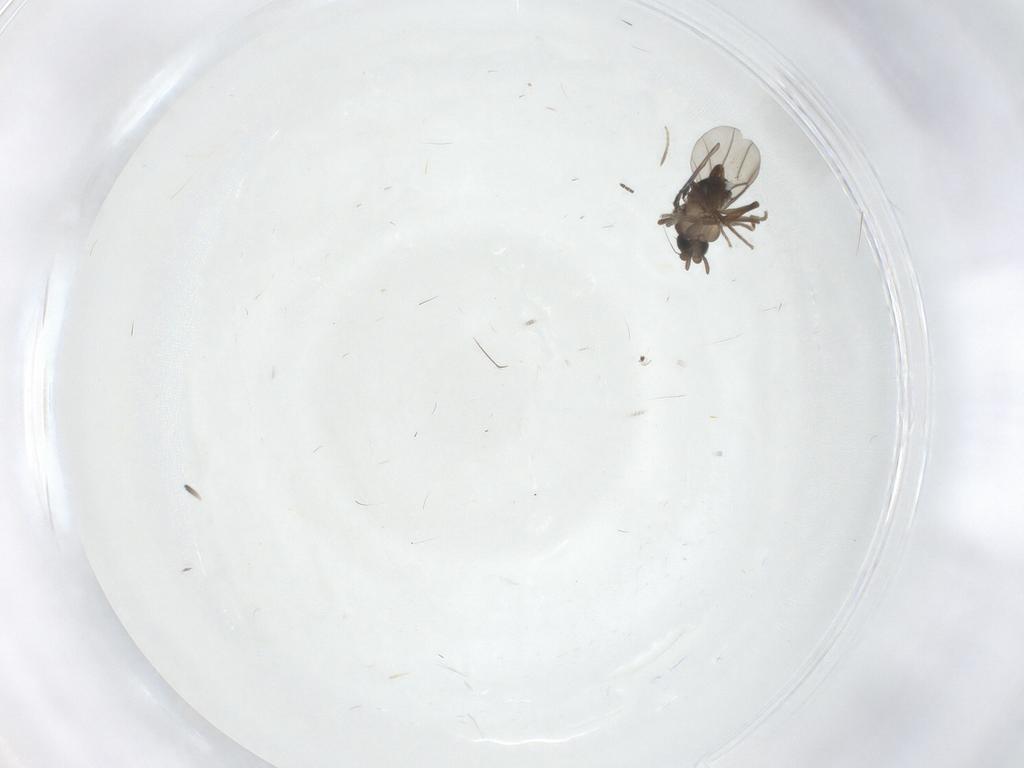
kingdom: Animalia
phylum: Arthropoda
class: Insecta
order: Diptera
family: Cecidomyiidae
